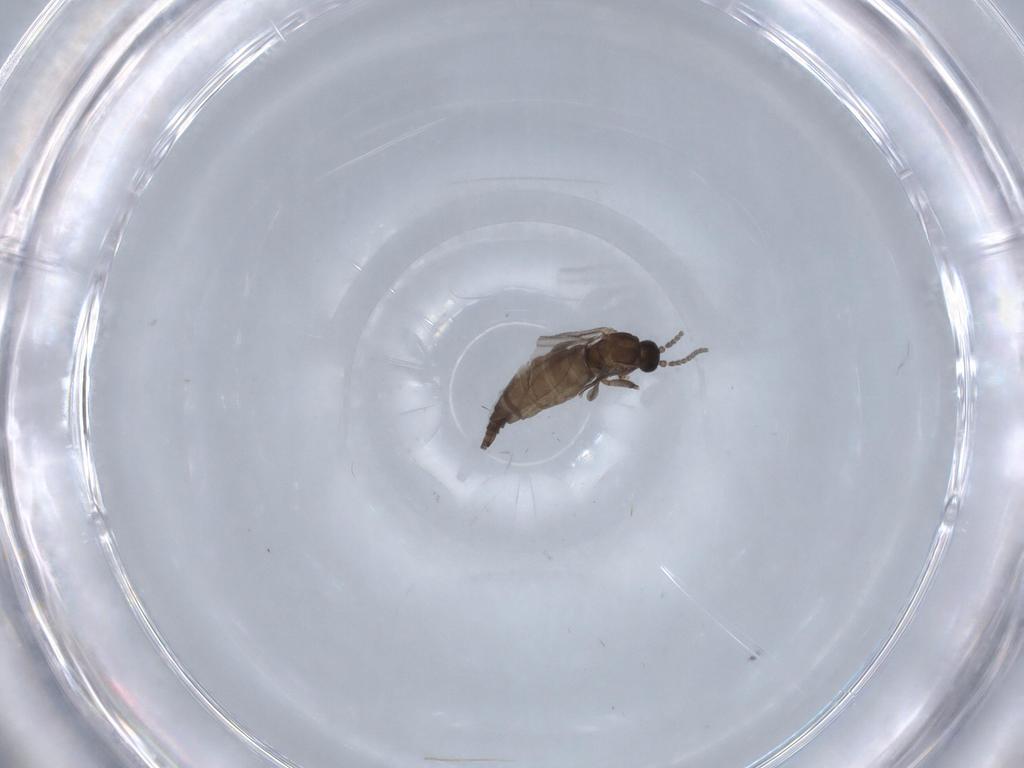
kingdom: Animalia
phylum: Arthropoda
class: Insecta
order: Diptera
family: Sciaridae
